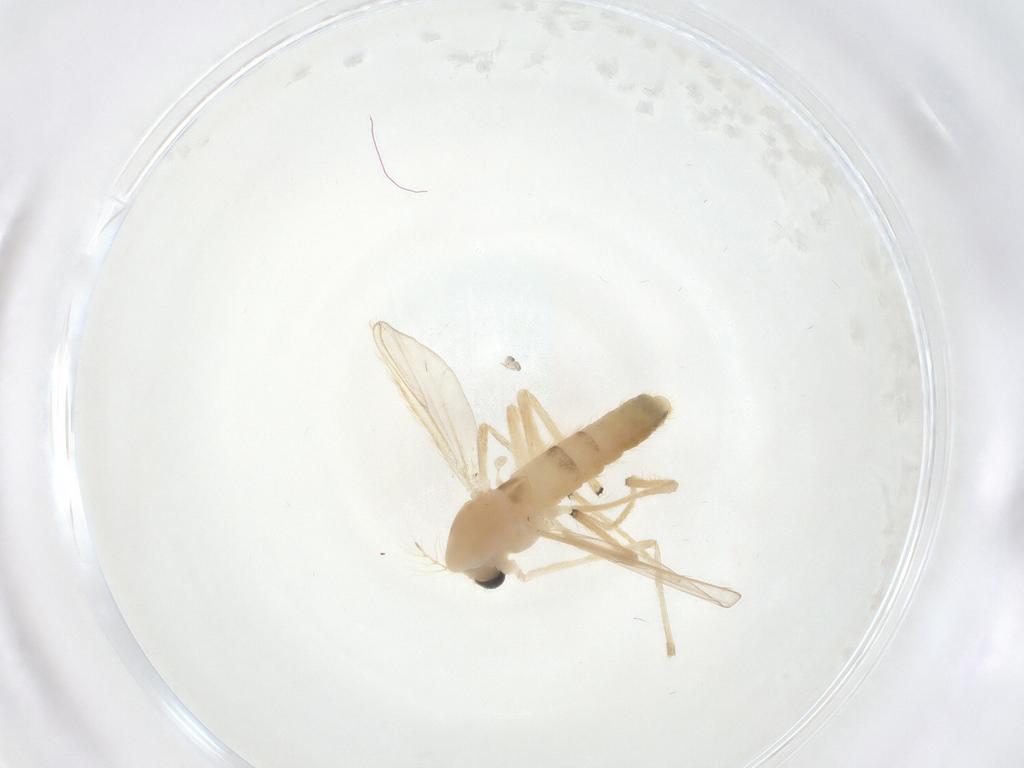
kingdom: Animalia
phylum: Arthropoda
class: Insecta
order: Diptera
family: Chironomidae
